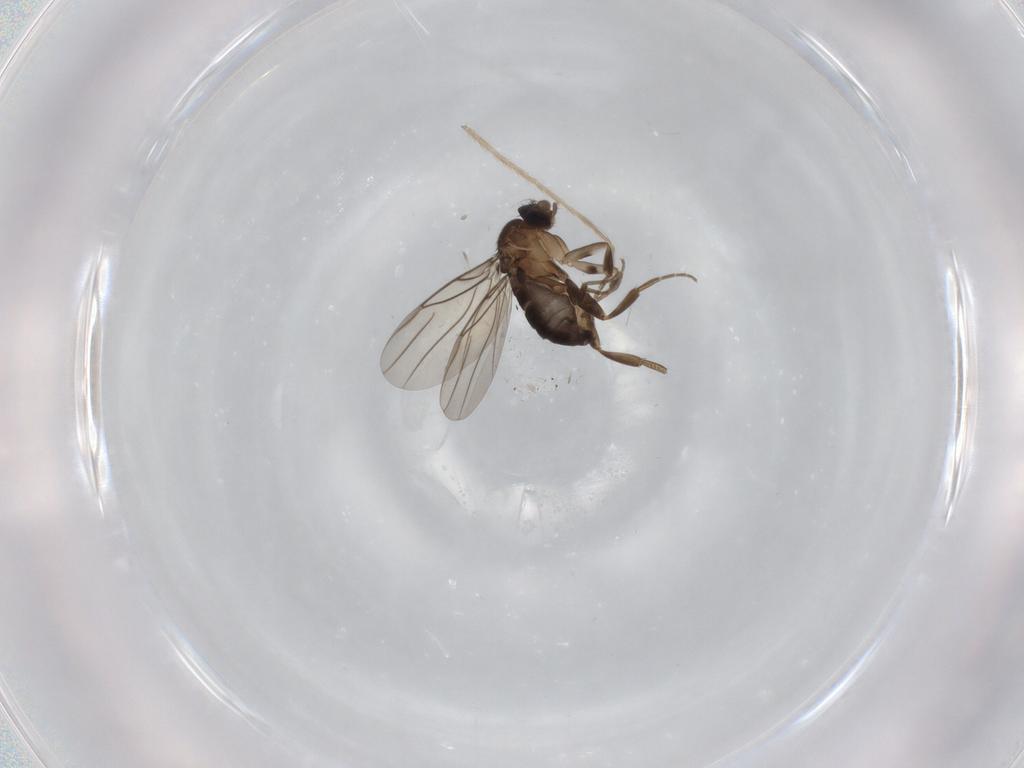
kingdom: Animalia
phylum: Arthropoda
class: Insecta
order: Diptera
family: Phoridae
